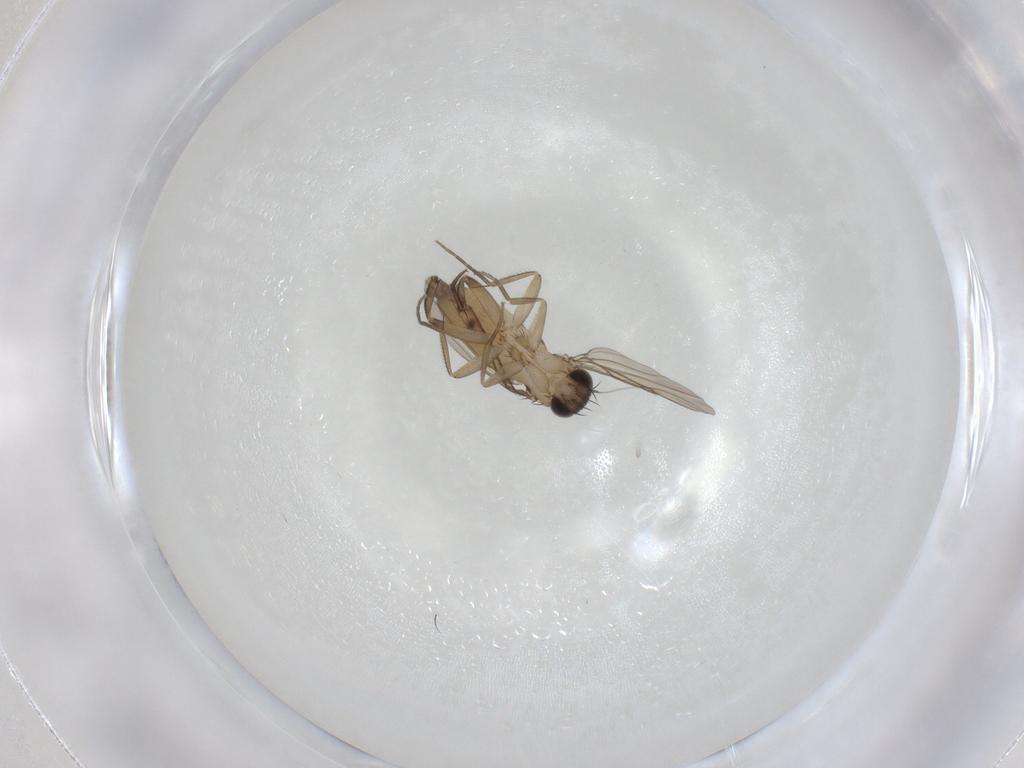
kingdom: Animalia
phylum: Arthropoda
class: Insecta
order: Diptera
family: Phoridae
